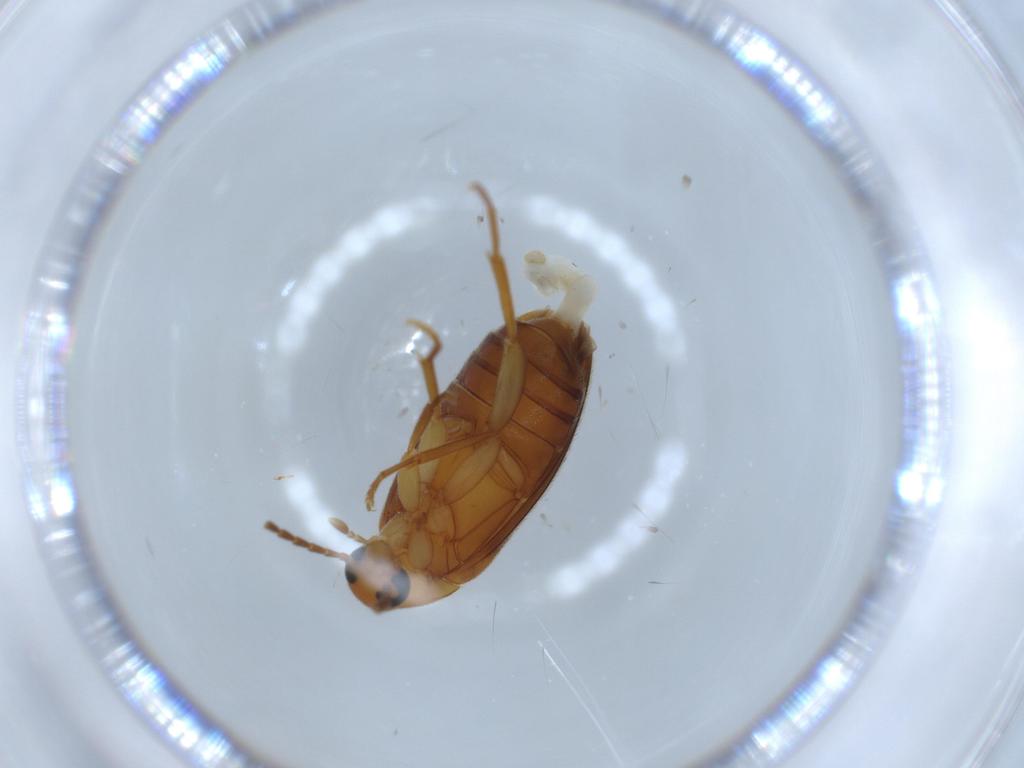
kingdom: Animalia
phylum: Arthropoda
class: Insecta
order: Coleoptera
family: Scraptiidae
